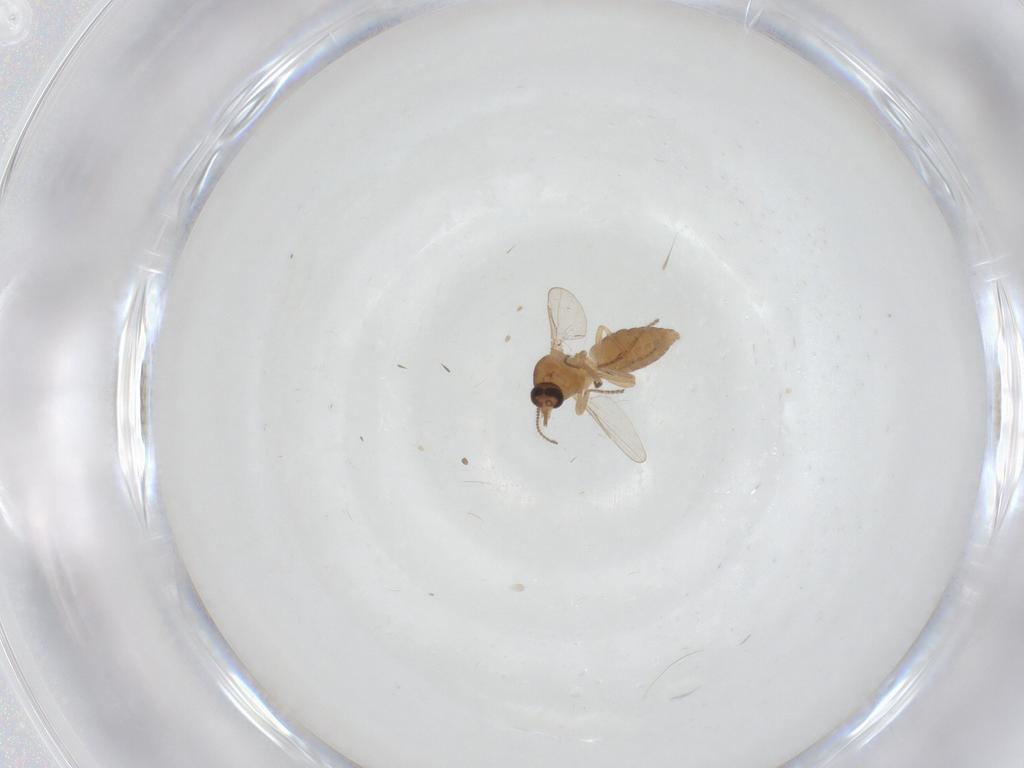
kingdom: Animalia
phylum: Arthropoda
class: Insecta
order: Diptera
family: Ceratopogonidae
